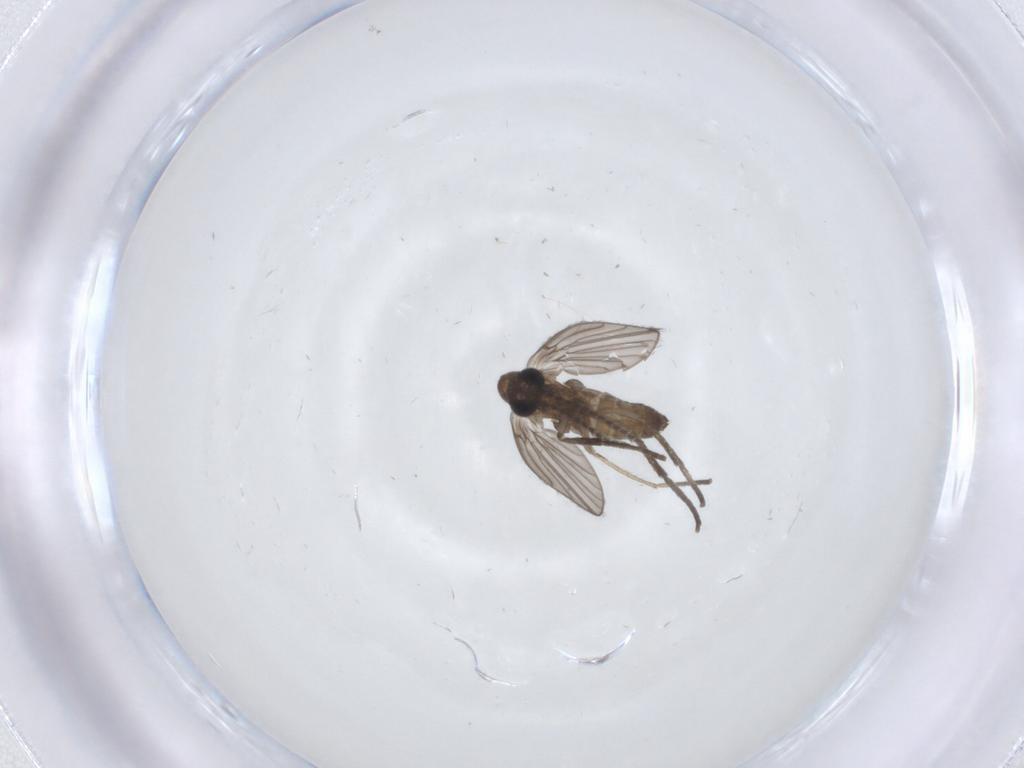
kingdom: Animalia
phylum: Arthropoda
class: Insecta
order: Diptera
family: Psychodidae
